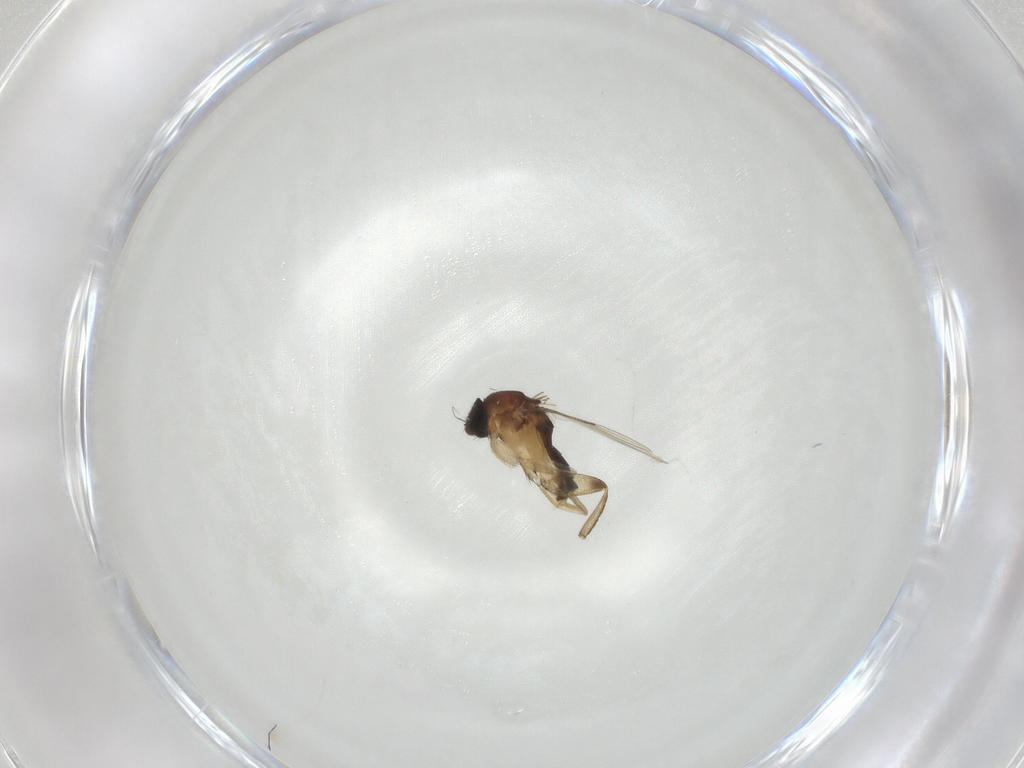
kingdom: Animalia
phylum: Arthropoda
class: Insecta
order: Diptera
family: Phoridae
